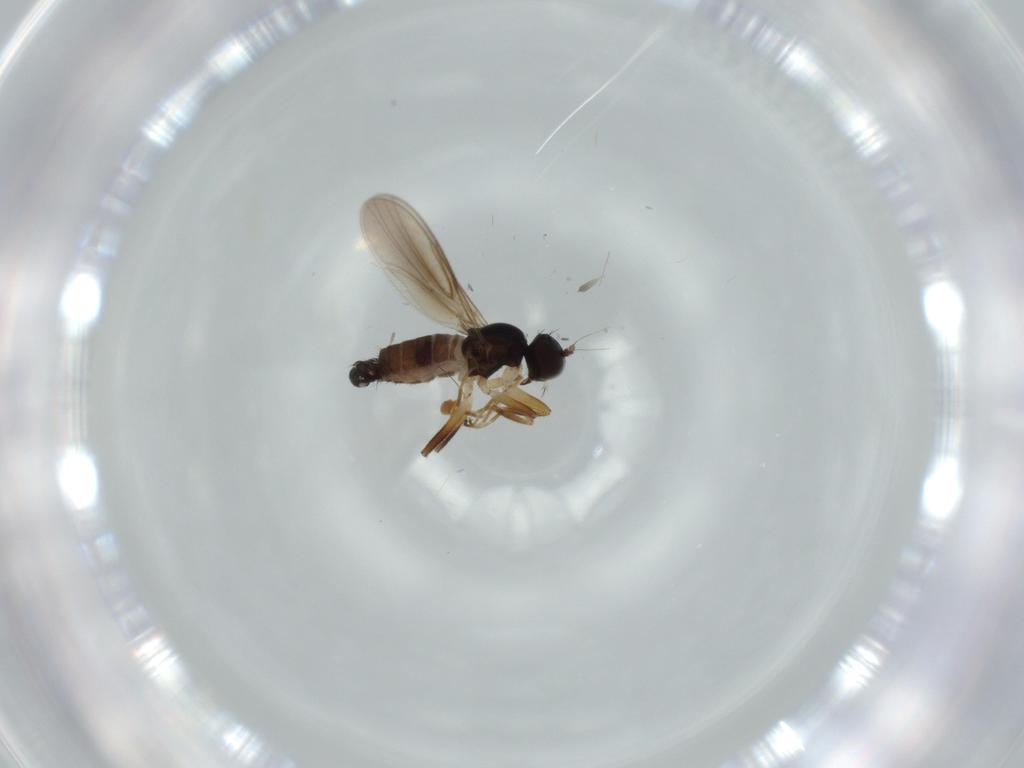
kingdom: Animalia
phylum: Arthropoda
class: Insecta
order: Diptera
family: Hybotidae
